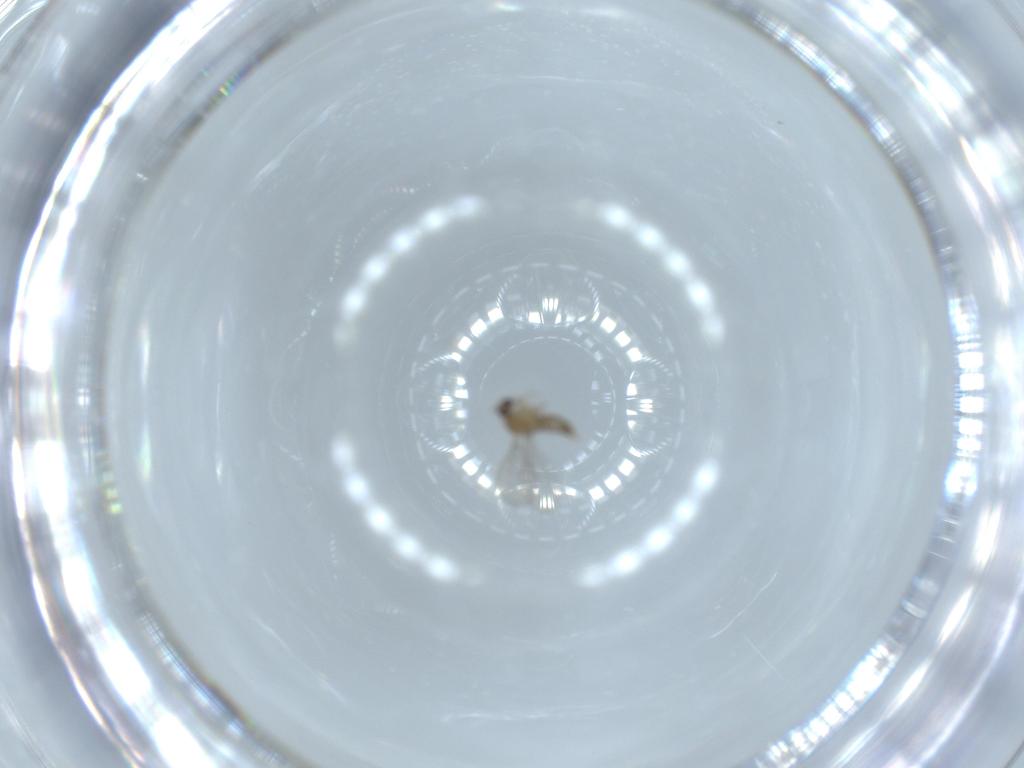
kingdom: Animalia
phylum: Arthropoda
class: Insecta
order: Diptera
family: Cecidomyiidae
